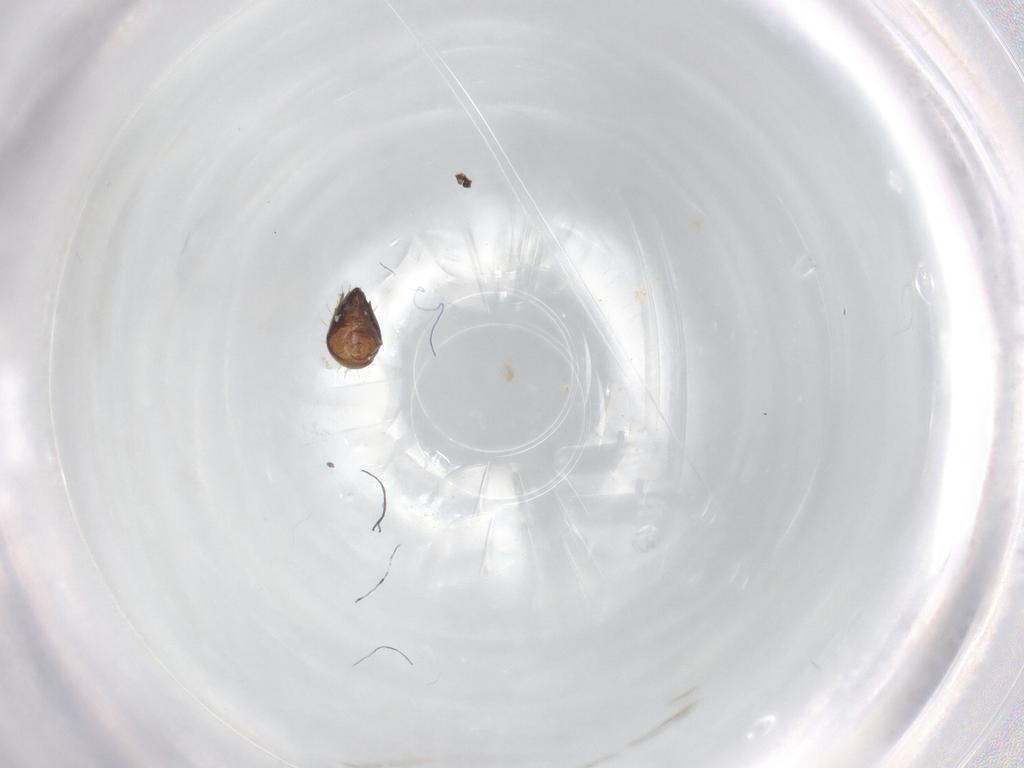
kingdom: Animalia
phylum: Arthropoda
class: Arachnida
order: Sarcoptiformes
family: Humerobatidae
